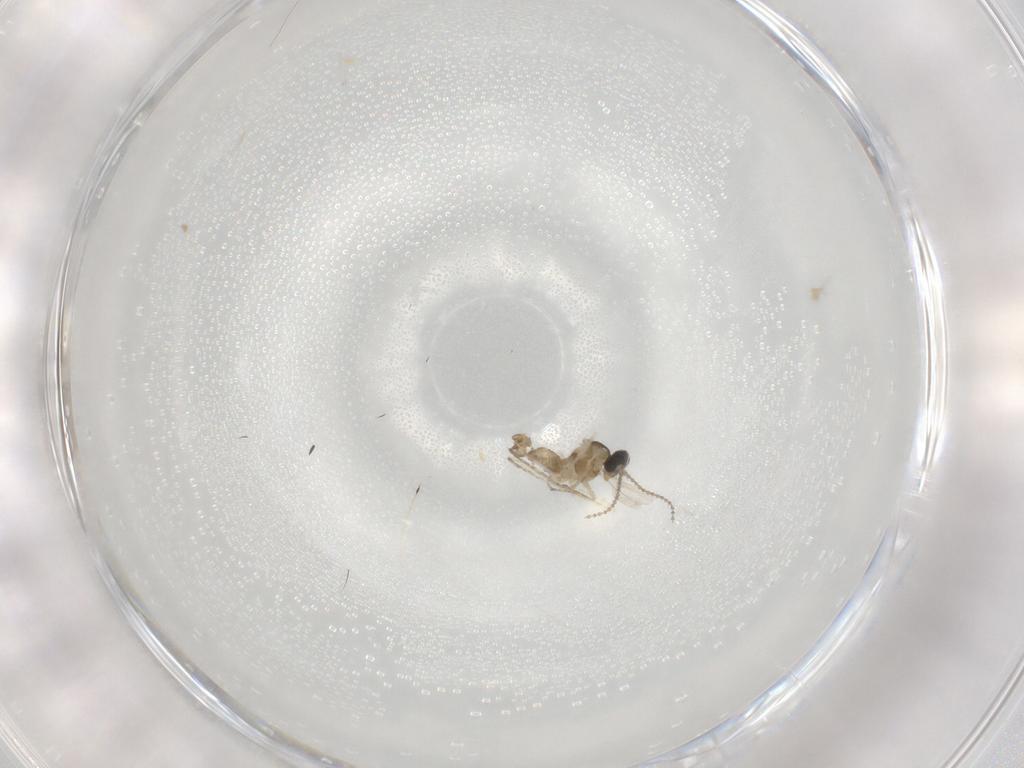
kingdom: Animalia
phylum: Arthropoda
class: Insecta
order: Diptera
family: Cecidomyiidae
